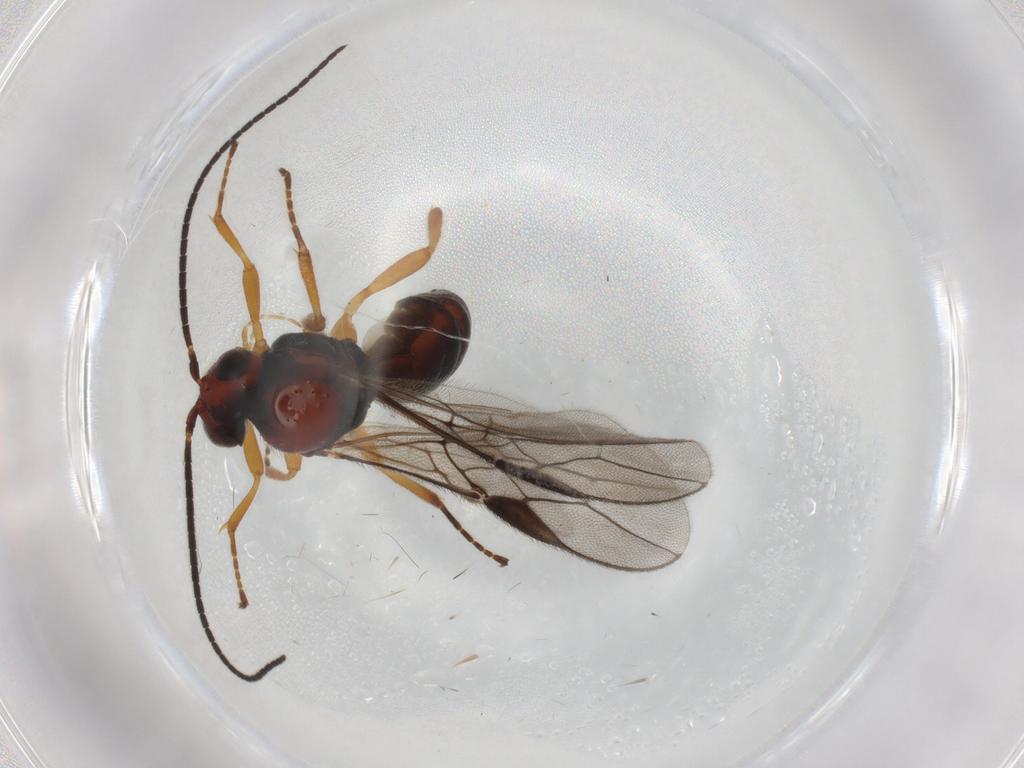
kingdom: Animalia
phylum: Arthropoda
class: Insecta
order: Hymenoptera
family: Braconidae
